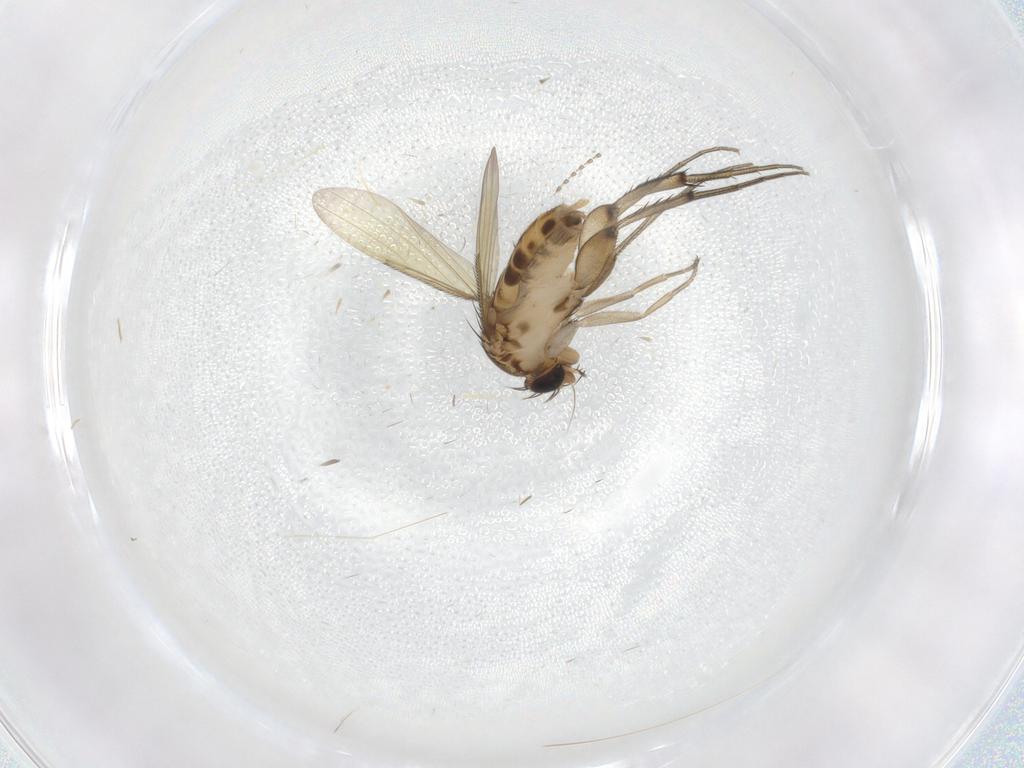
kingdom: Animalia
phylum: Arthropoda
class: Insecta
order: Diptera
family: Phoridae
